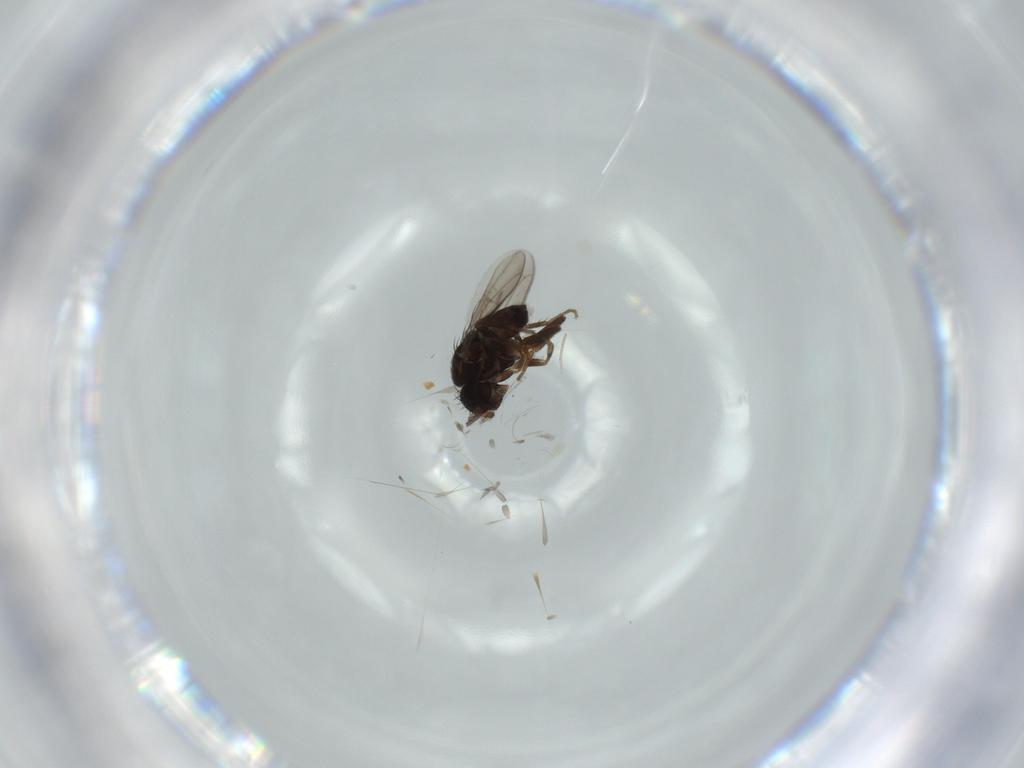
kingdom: Animalia
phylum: Arthropoda
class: Insecta
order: Diptera
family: Sphaeroceridae
